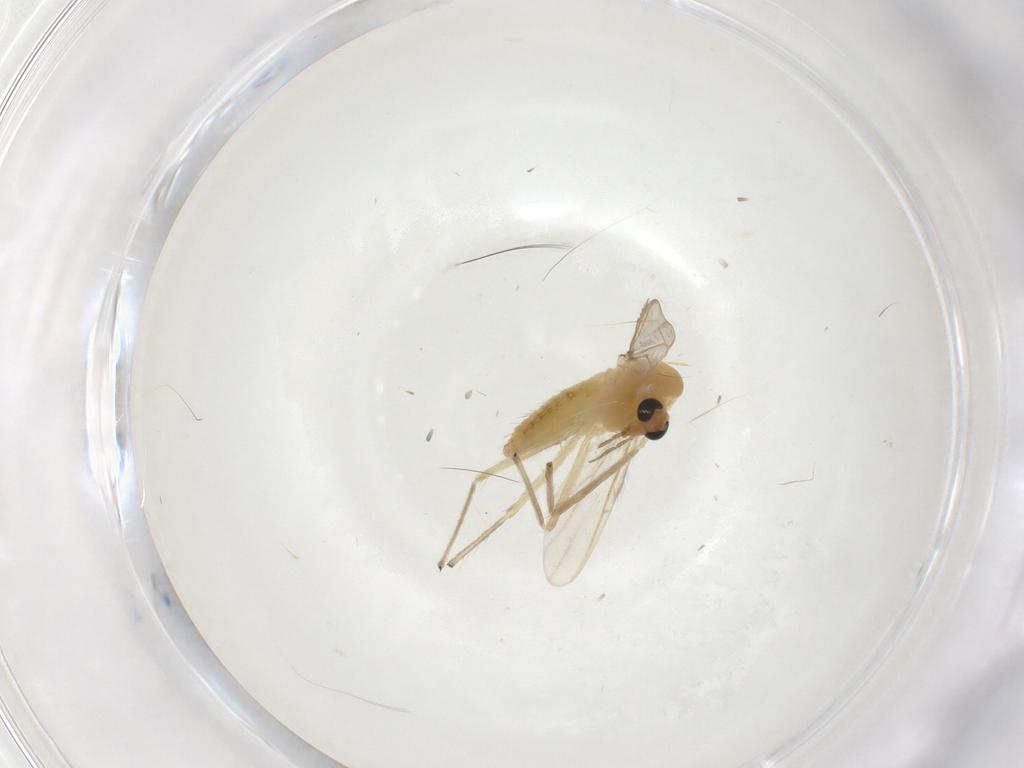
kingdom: Animalia
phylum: Arthropoda
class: Insecta
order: Diptera
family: Chironomidae
